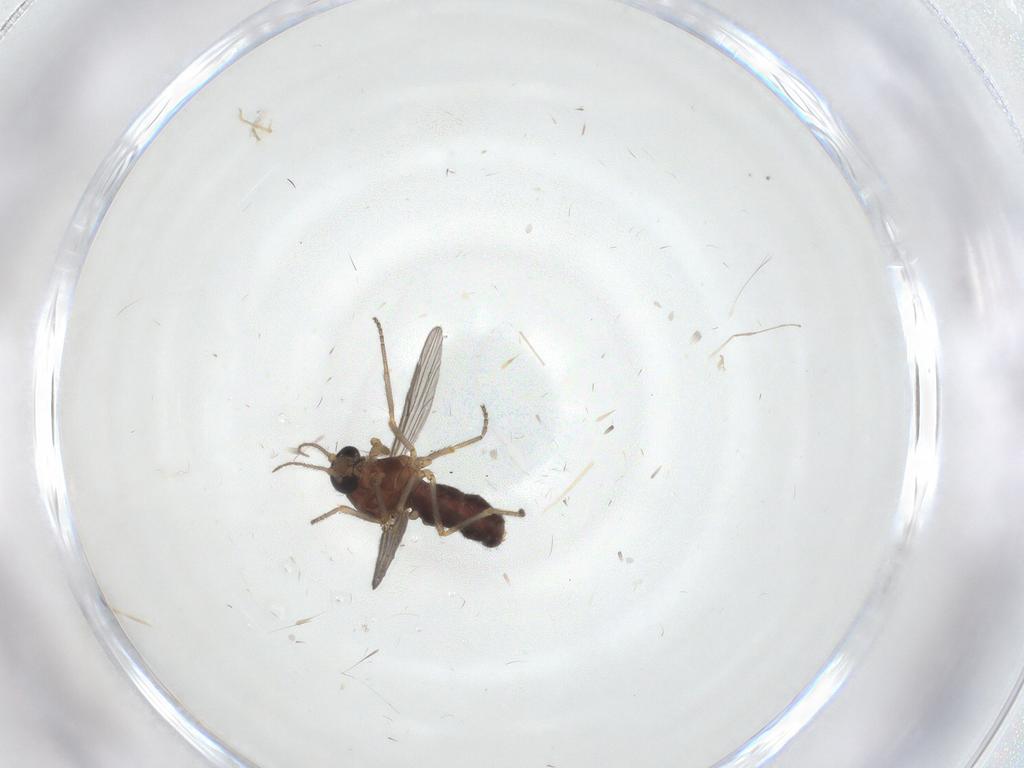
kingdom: Animalia
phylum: Arthropoda
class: Insecta
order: Diptera
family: Ceratopogonidae
